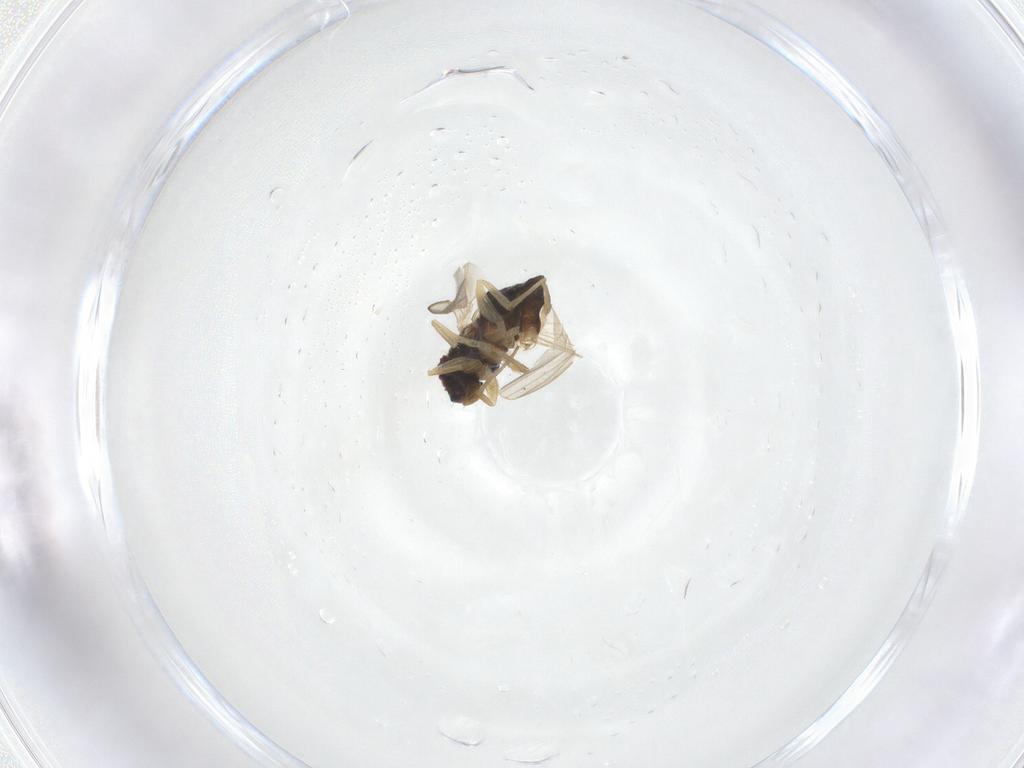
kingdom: Animalia
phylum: Arthropoda
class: Insecta
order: Diptera
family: Dolichopodidae
